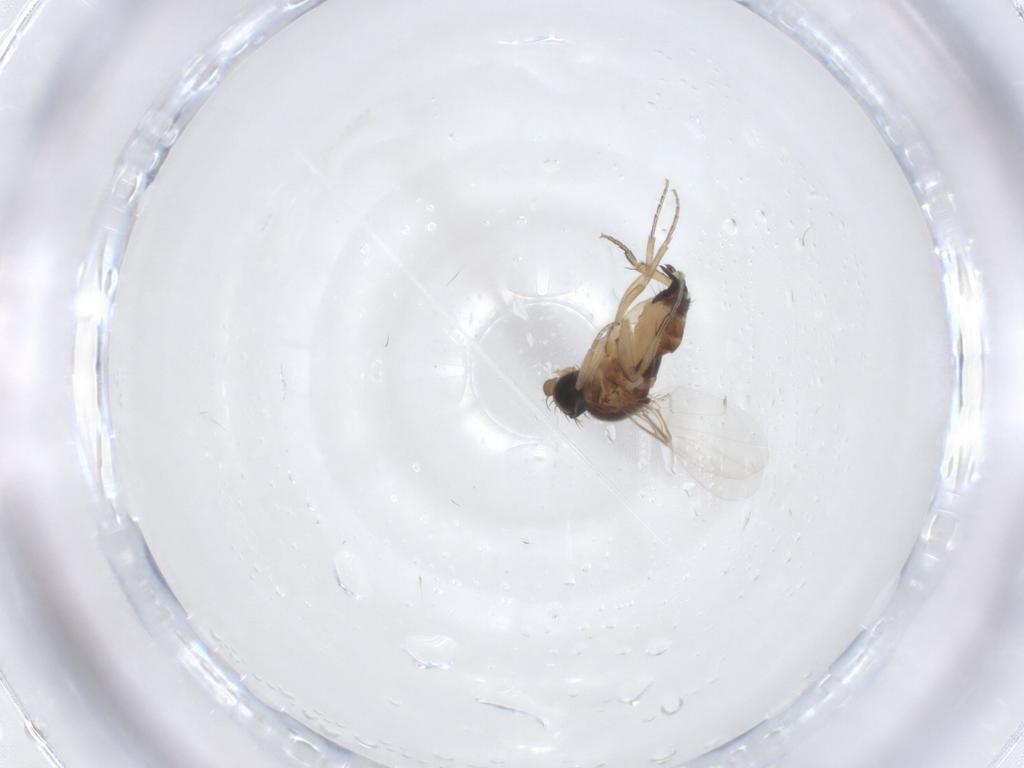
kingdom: Animalia
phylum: Arthropoda
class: Insecta
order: Diptera
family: Phoridae
